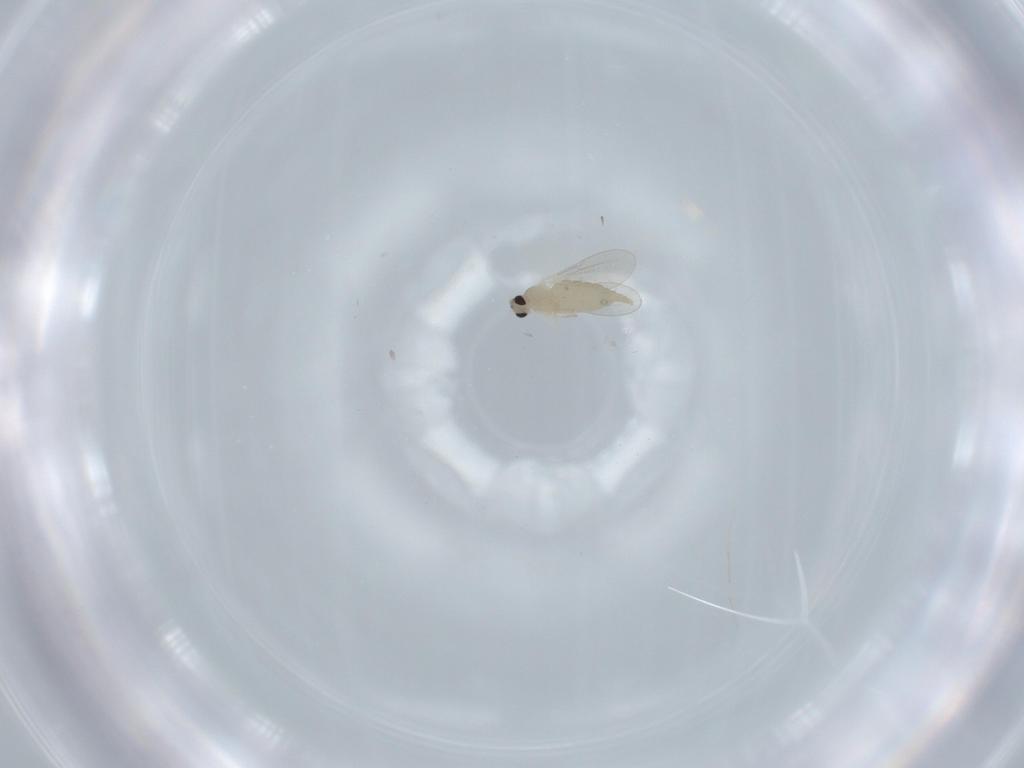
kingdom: Animalia
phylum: Arthropoda
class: Insecta
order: Diptera
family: Cecidomyiidae
